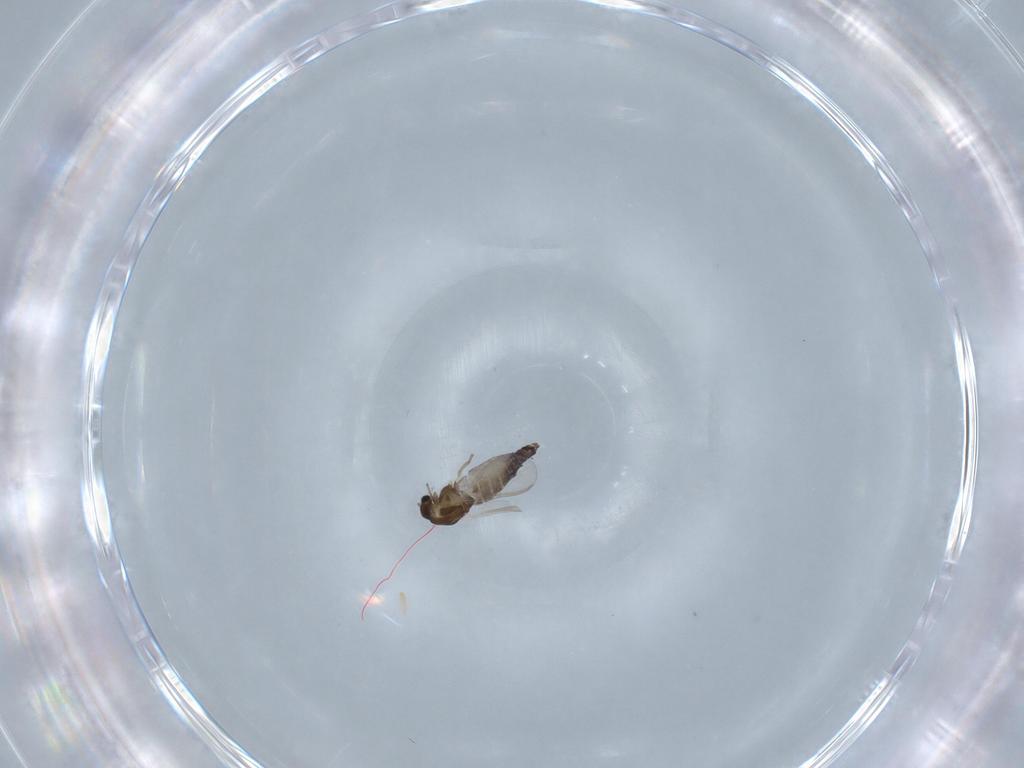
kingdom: Animalia
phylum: Arthropoda
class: Insecta
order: Diptera
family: Chironomidae
